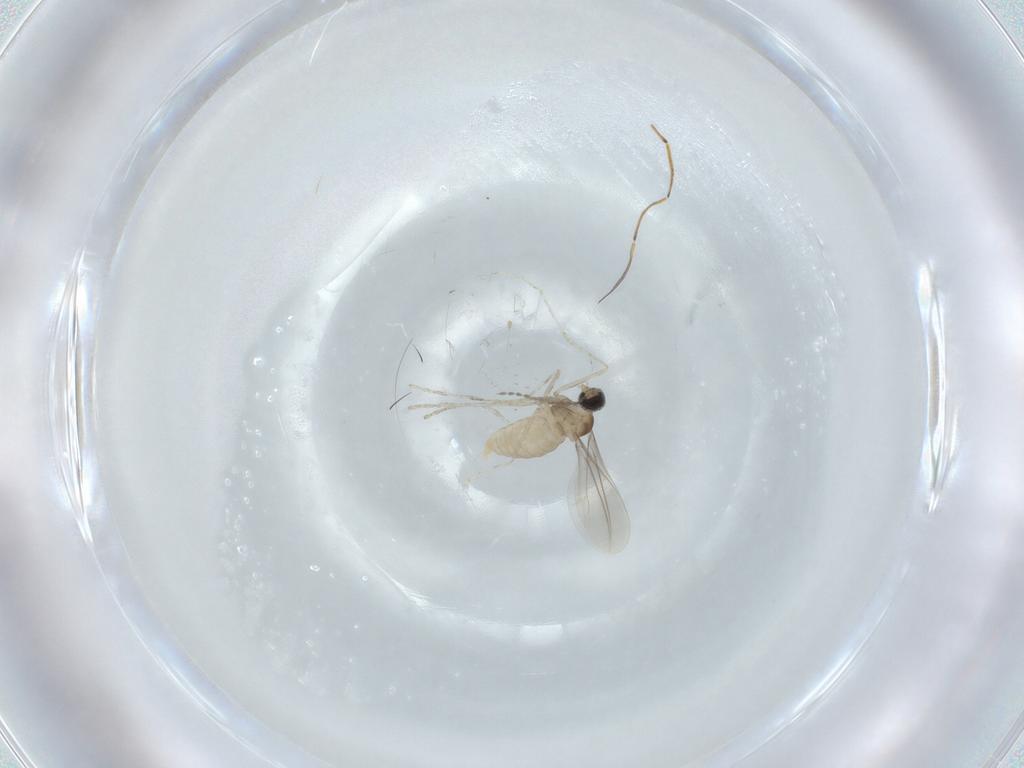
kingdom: Animalia
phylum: Arthropoda
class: Insecta
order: Diptera
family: Cecidomyiidae
